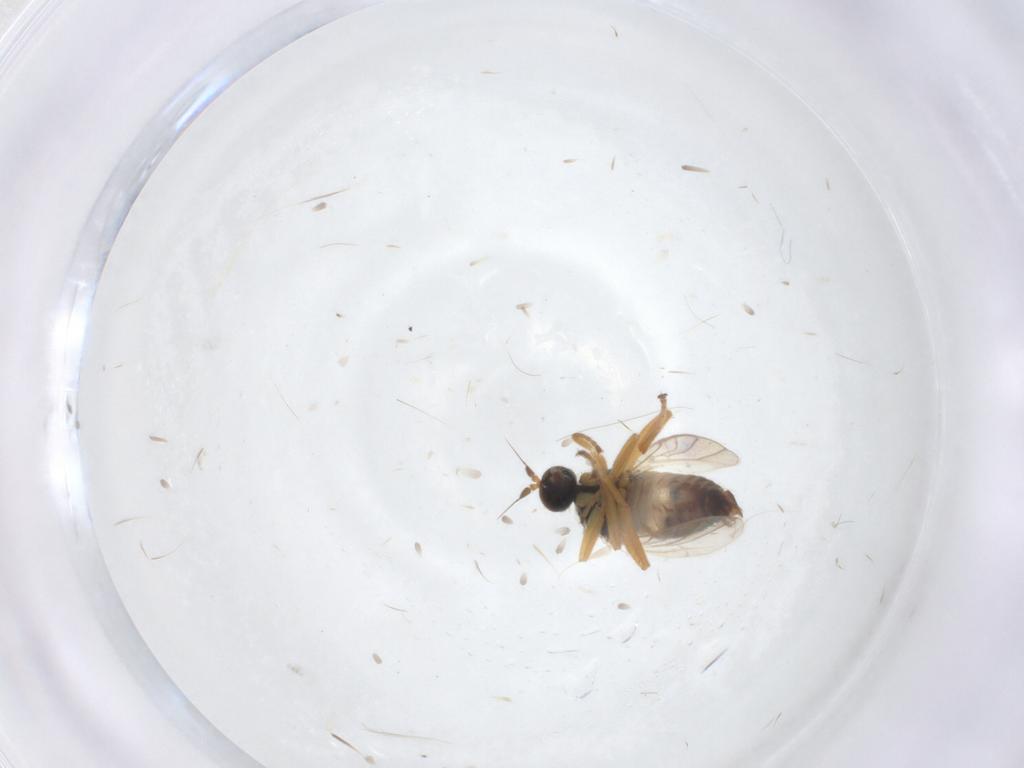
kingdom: Animalia
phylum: Arthropoda
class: Insecta
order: Diptera
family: Hybotidae
